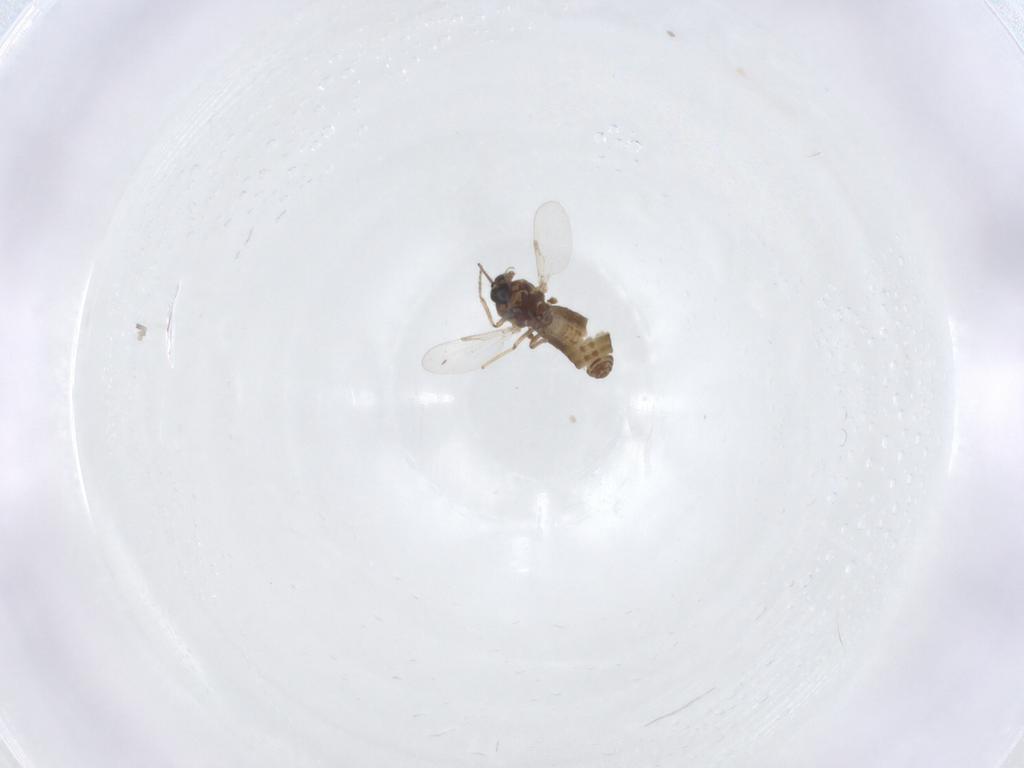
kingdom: Animalia
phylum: Arthropoda
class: Insecta
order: Diptera
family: Ceratopogonidae
